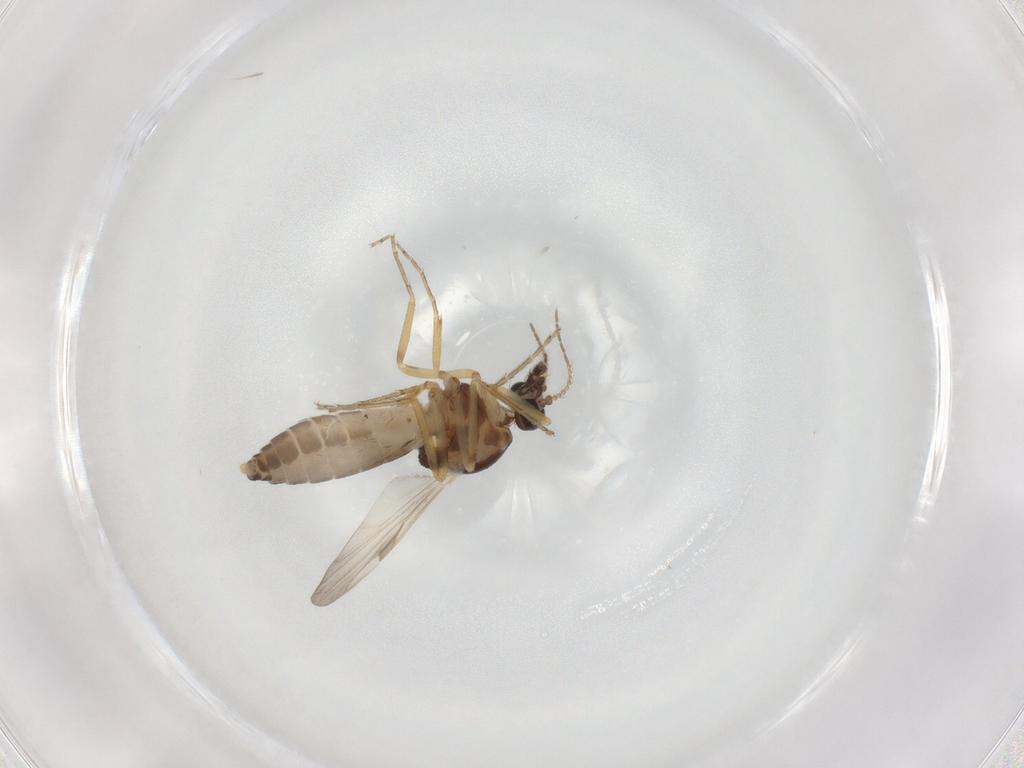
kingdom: Animalia
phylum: Arthropoda
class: Insecta
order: Diptera
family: Ceratopogonidae
